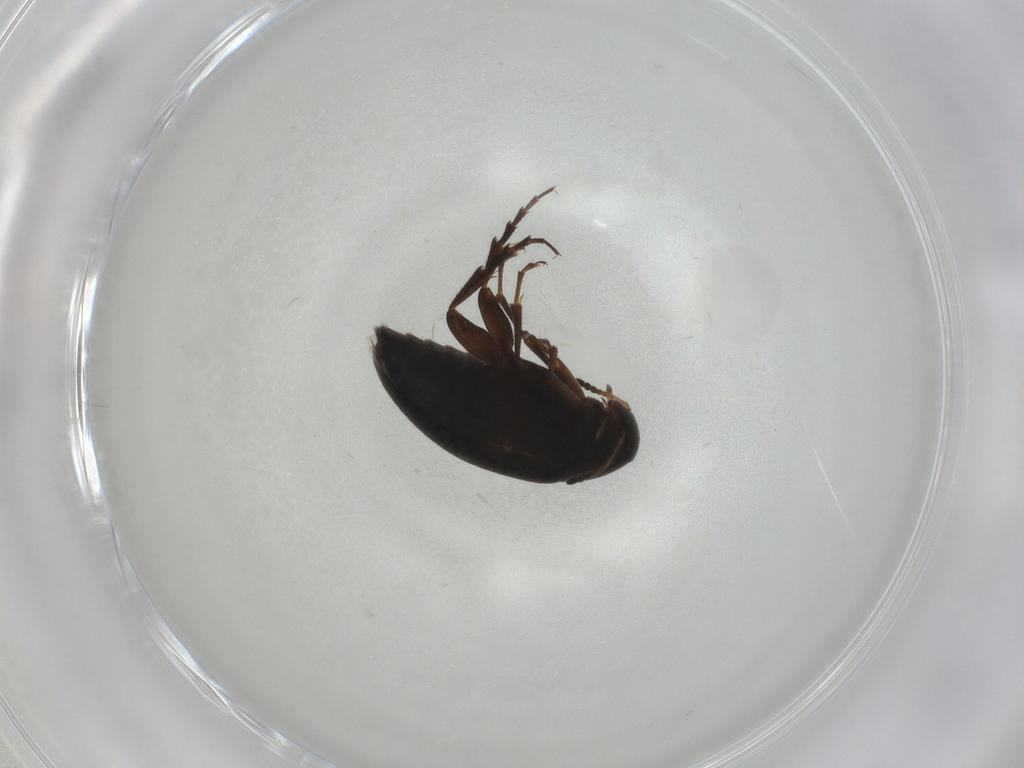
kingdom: Animalia
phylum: Arthropoda
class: Insecta
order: Coleoptera
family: Scraptiidae
